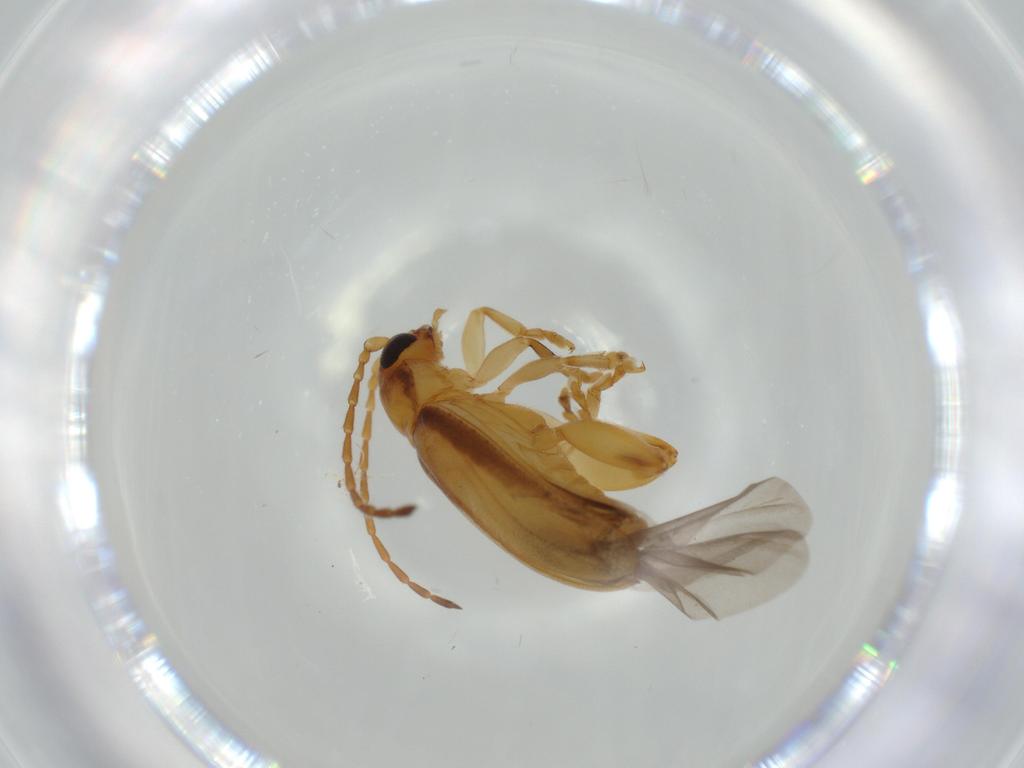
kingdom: Animalia
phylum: Arthropoda
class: Insecta
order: Coleoptera
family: Chrysomelidae
